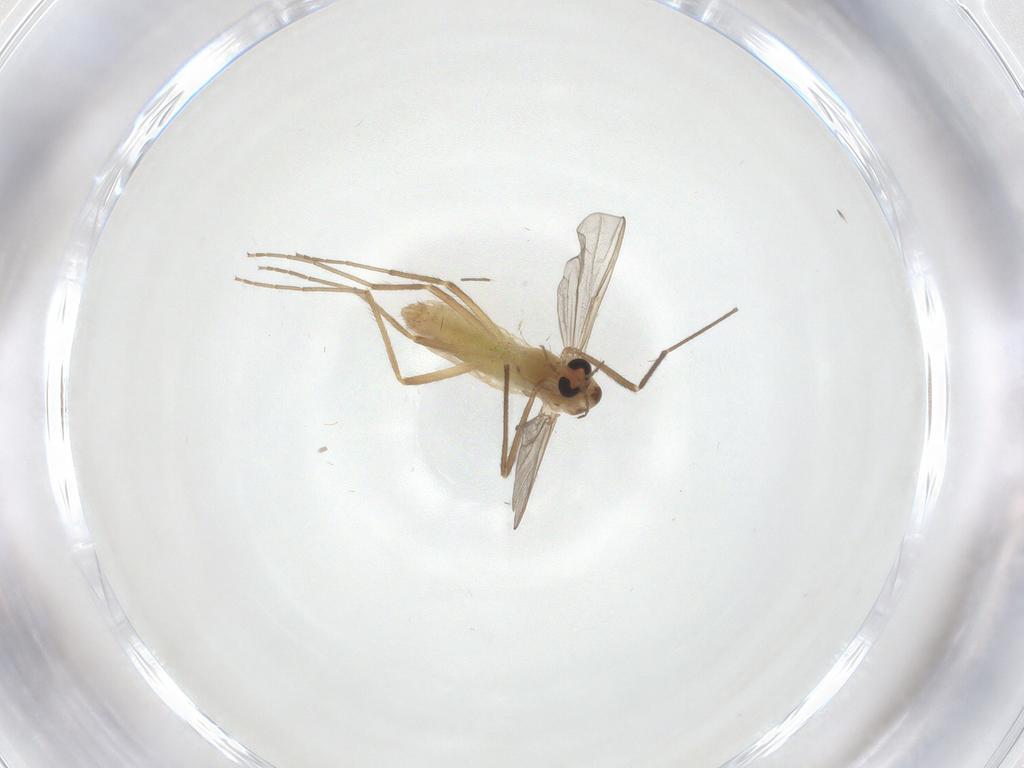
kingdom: Animalia
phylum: Arthropoda
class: Insecta
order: Diptera
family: Chironomidae
